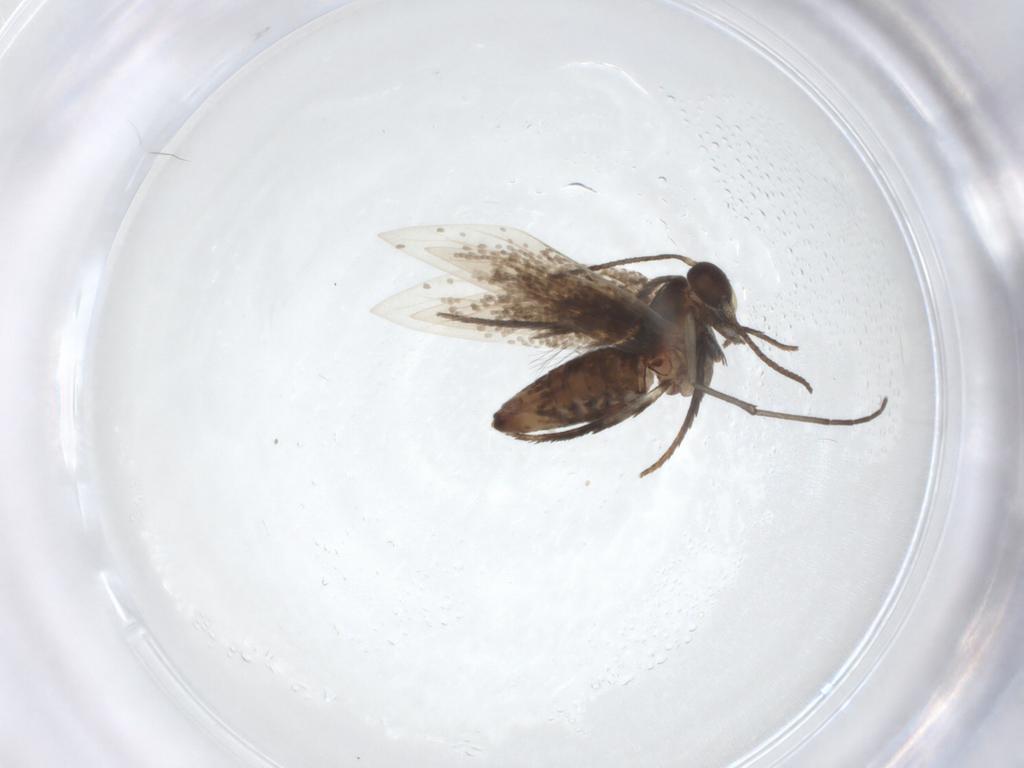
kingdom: Animalia
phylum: Arthropoda
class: Insecta
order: Lepidoptera
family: Heliozelidae
